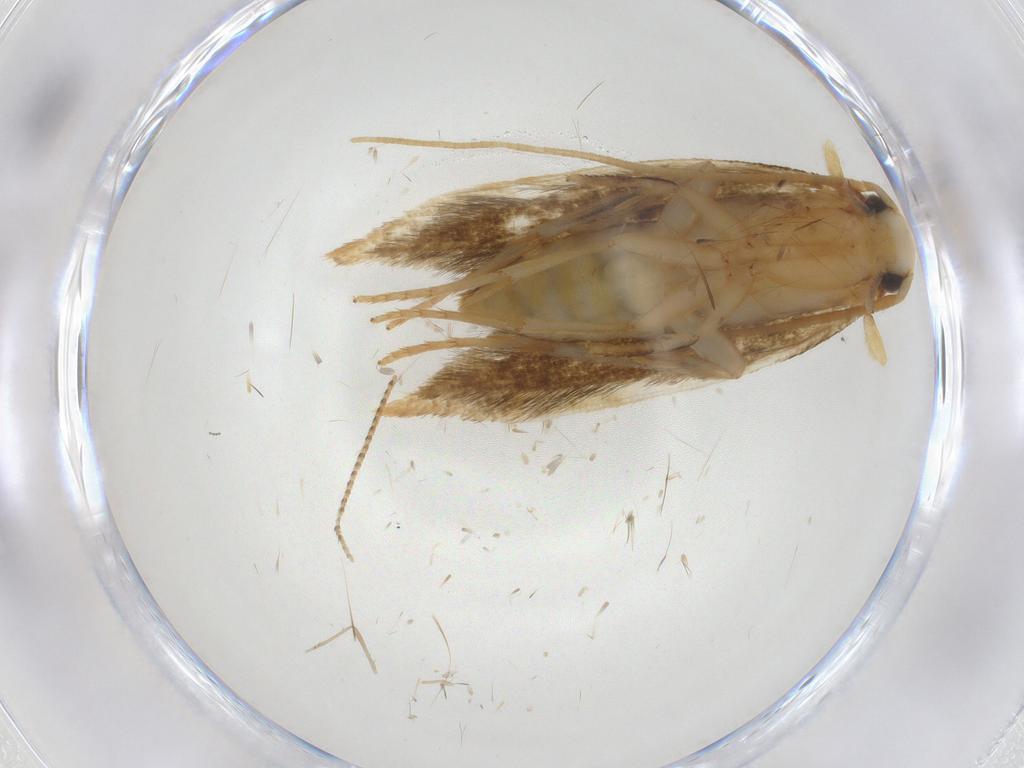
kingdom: Animalia
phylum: Arthropoda
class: Insecta
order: Lepidoptera
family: Tineidae
